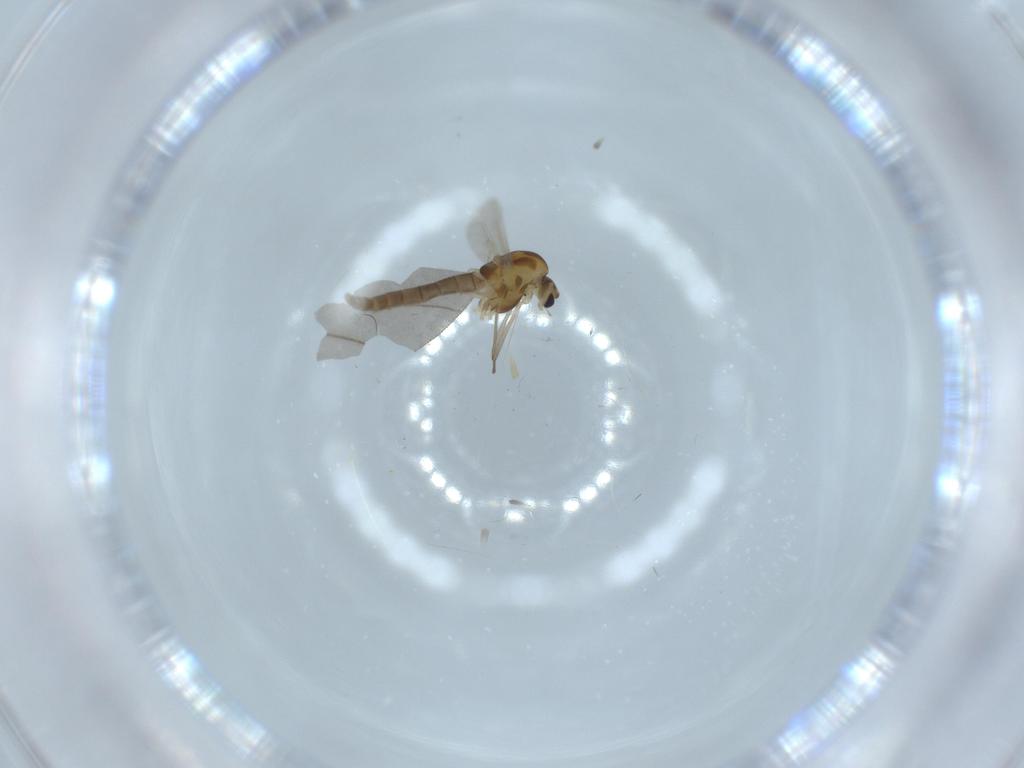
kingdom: Animalia
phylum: Arthropoda
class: Insecta
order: Diptera
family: Chironomidae
